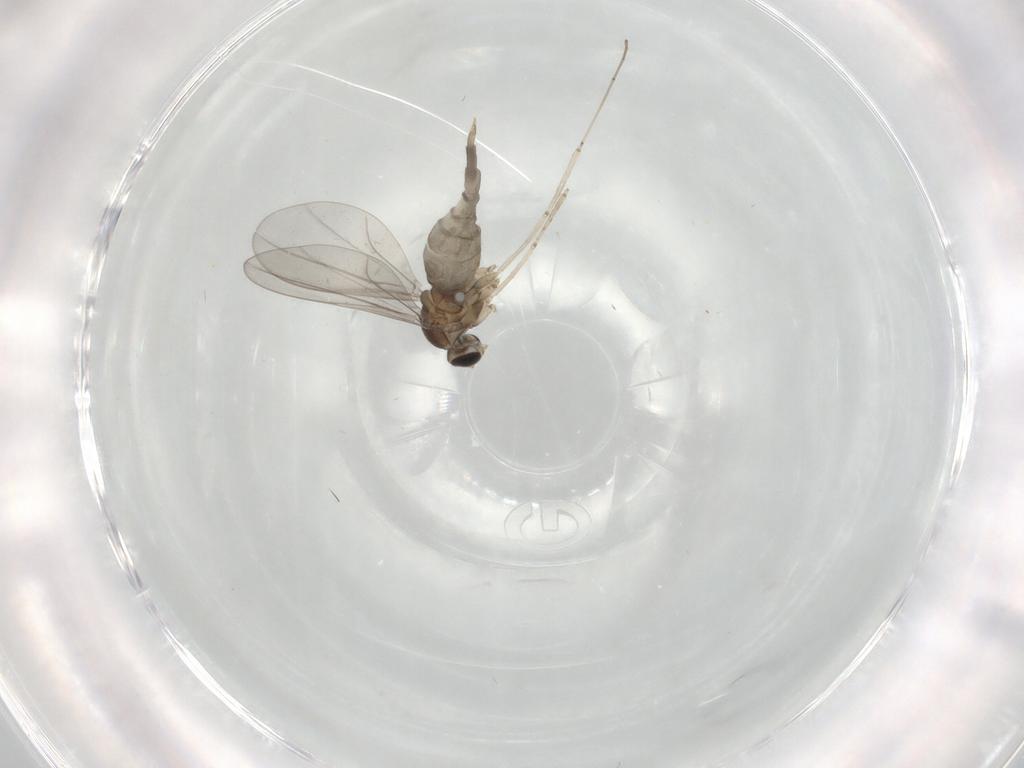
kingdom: Animalia
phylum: Arthropoda
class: Insecta
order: Diptera
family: Cecidomyiidae
